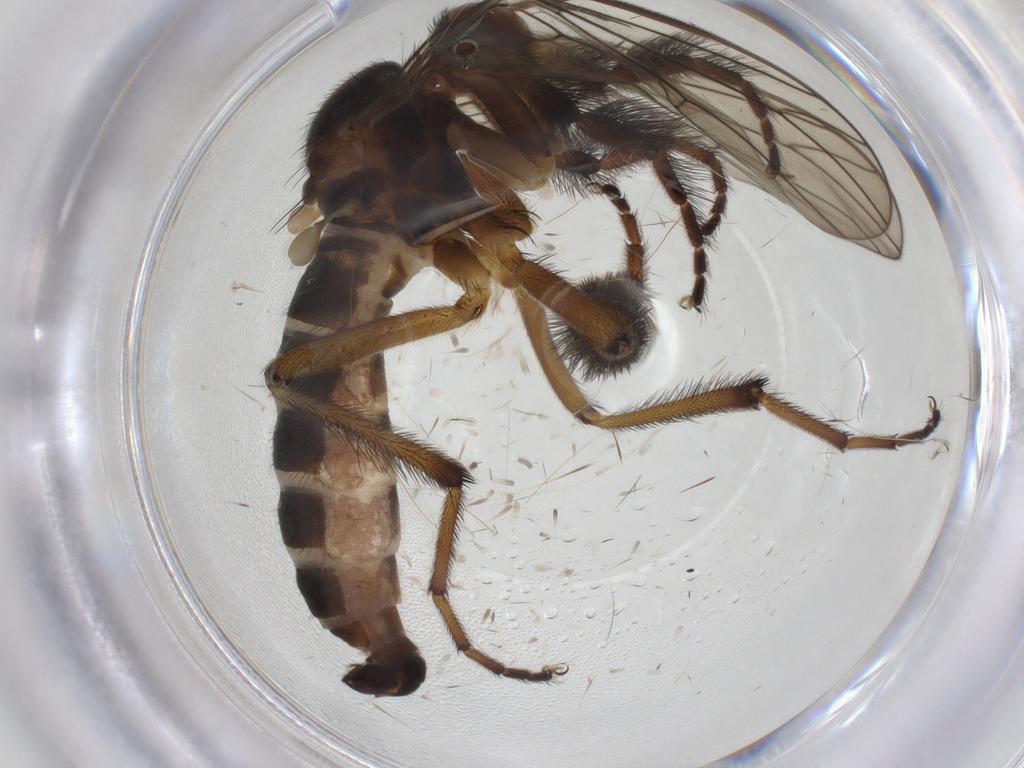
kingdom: Animalia
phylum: Arthropoda
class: Insecta
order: Diptera
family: Empididae
